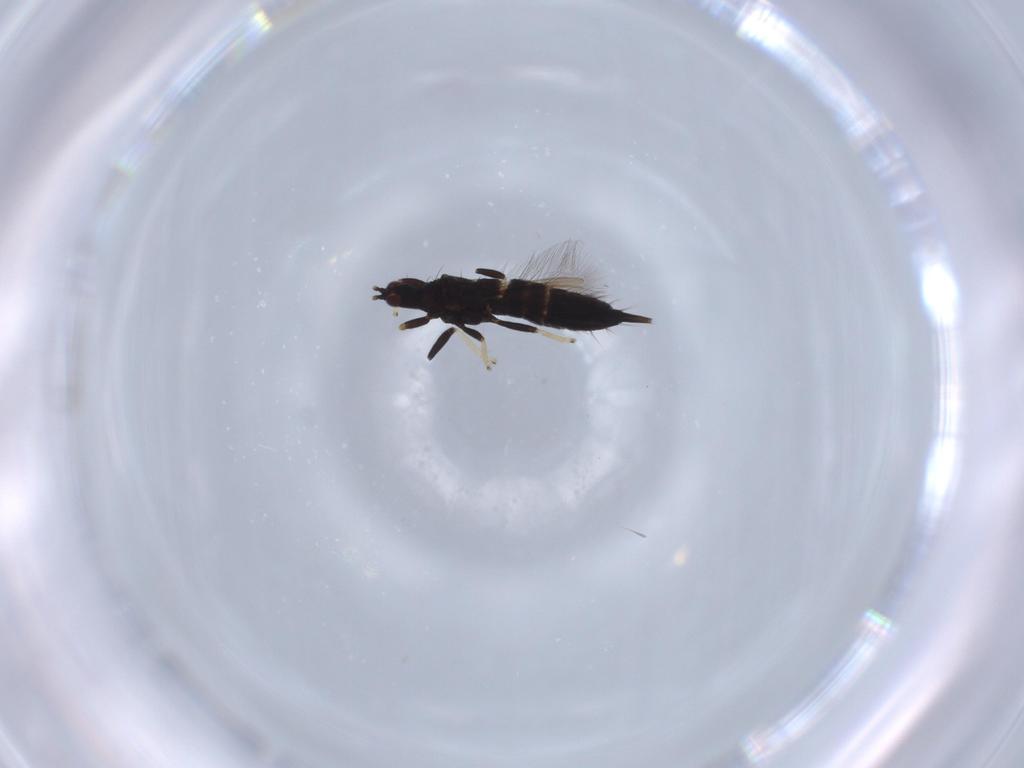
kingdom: Animalia
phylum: Arthropoda
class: Insecta
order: Thysanoptera
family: Phlaeothripidae
